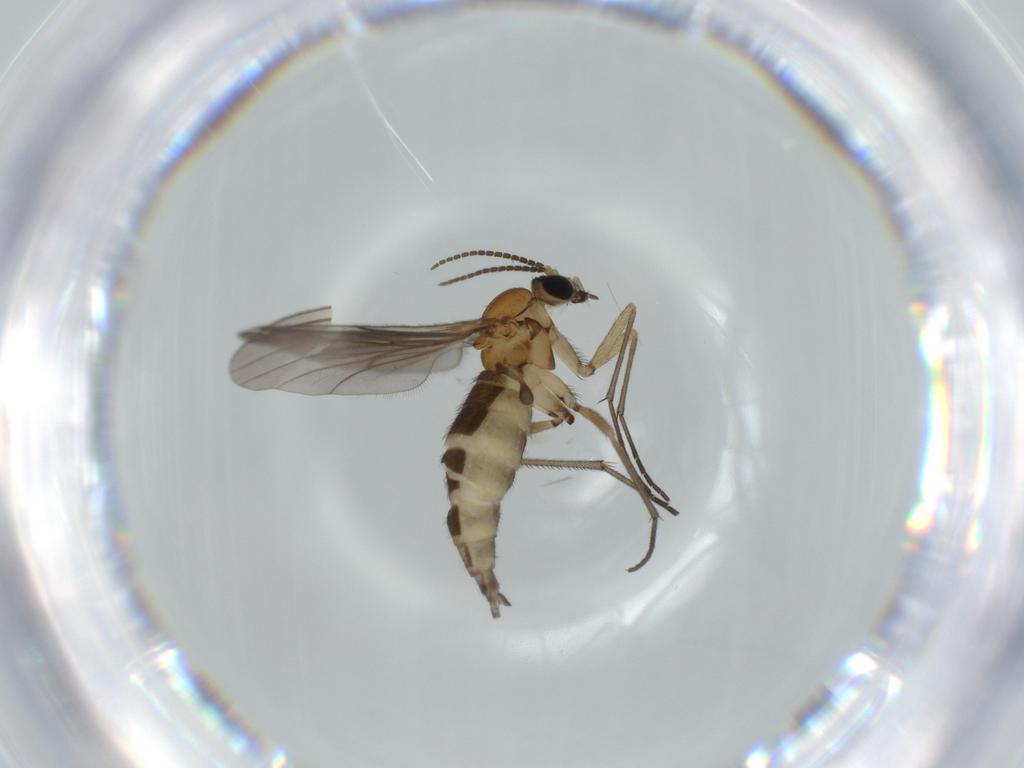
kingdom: Animalia
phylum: Arthropoda
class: Insecta
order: Diptera
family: Sciaridae
